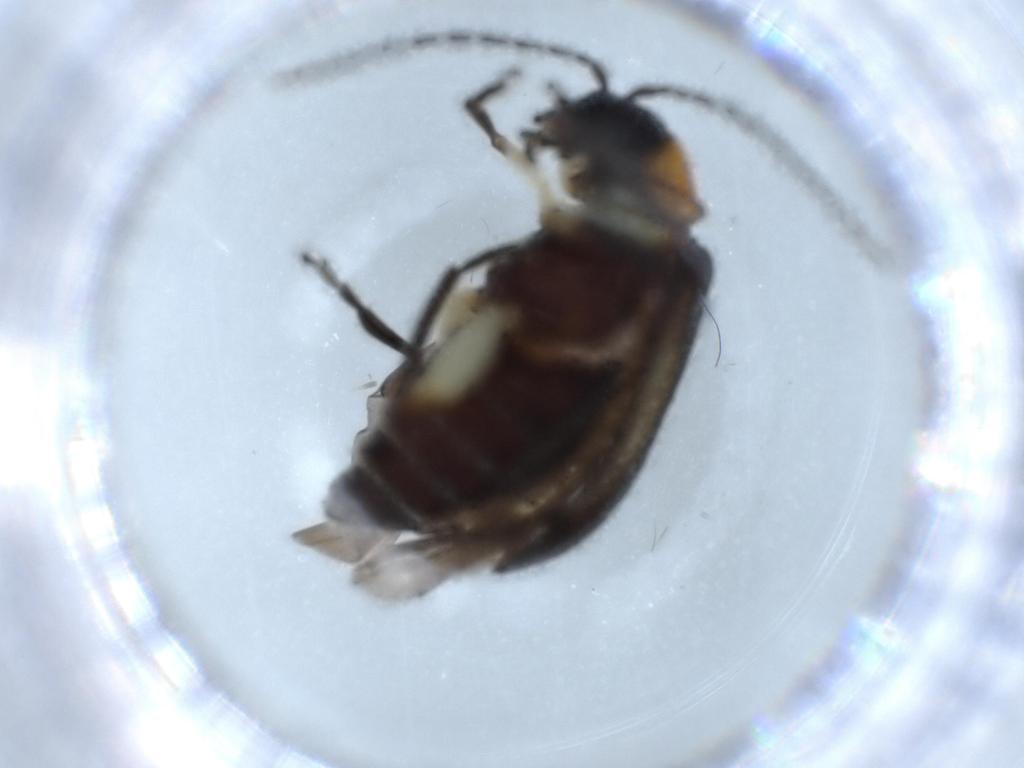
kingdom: Animalia
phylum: Arthropoda
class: Insecta
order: Coleoptera
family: Chrysomelidae
